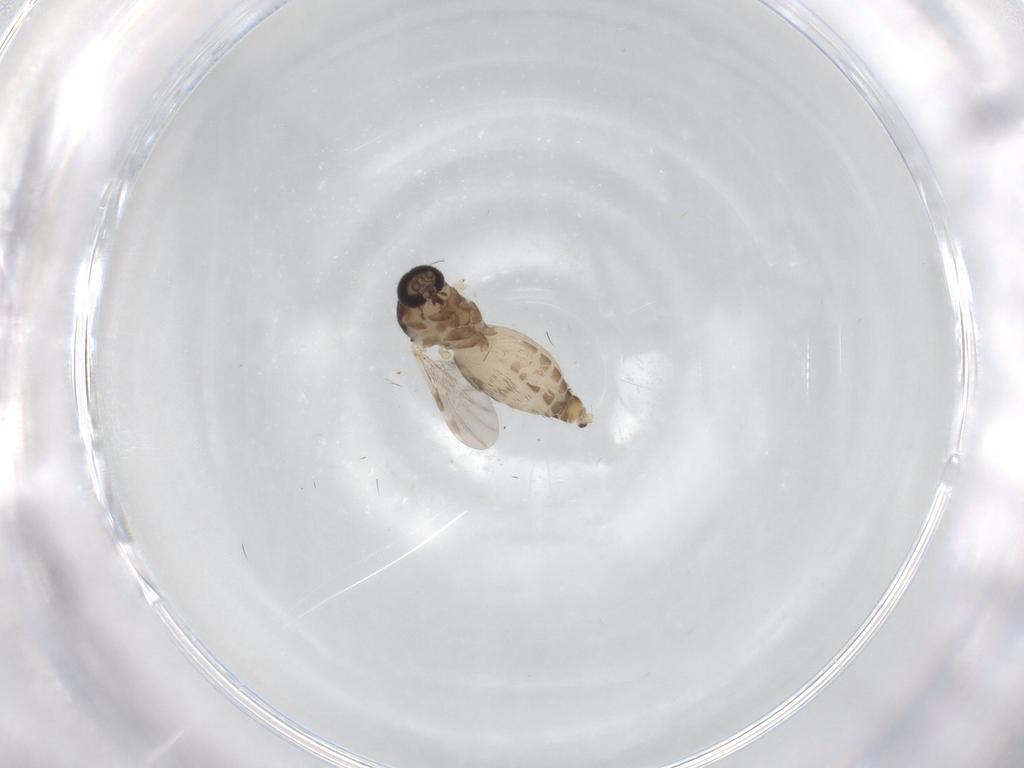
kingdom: Animalia
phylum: Arthropoda
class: Insecta
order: Diptera
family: Ceratopogonidae
